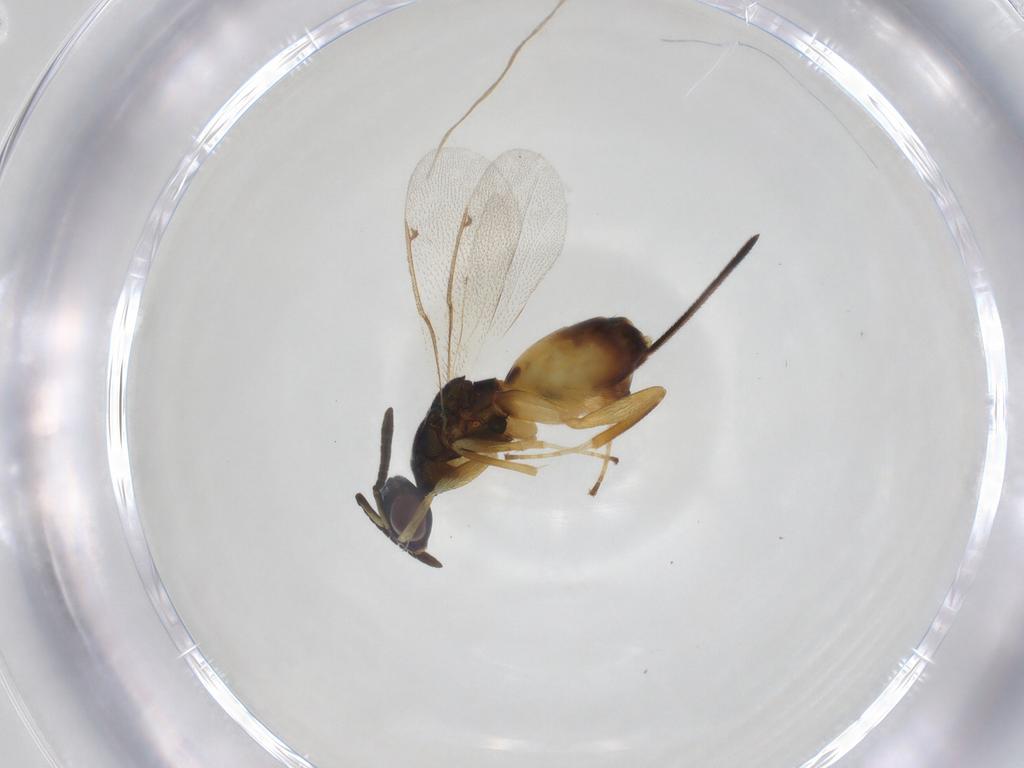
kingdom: Animalia
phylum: Arthropoda
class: Insecta
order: Hymenoptera
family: Torymidae
